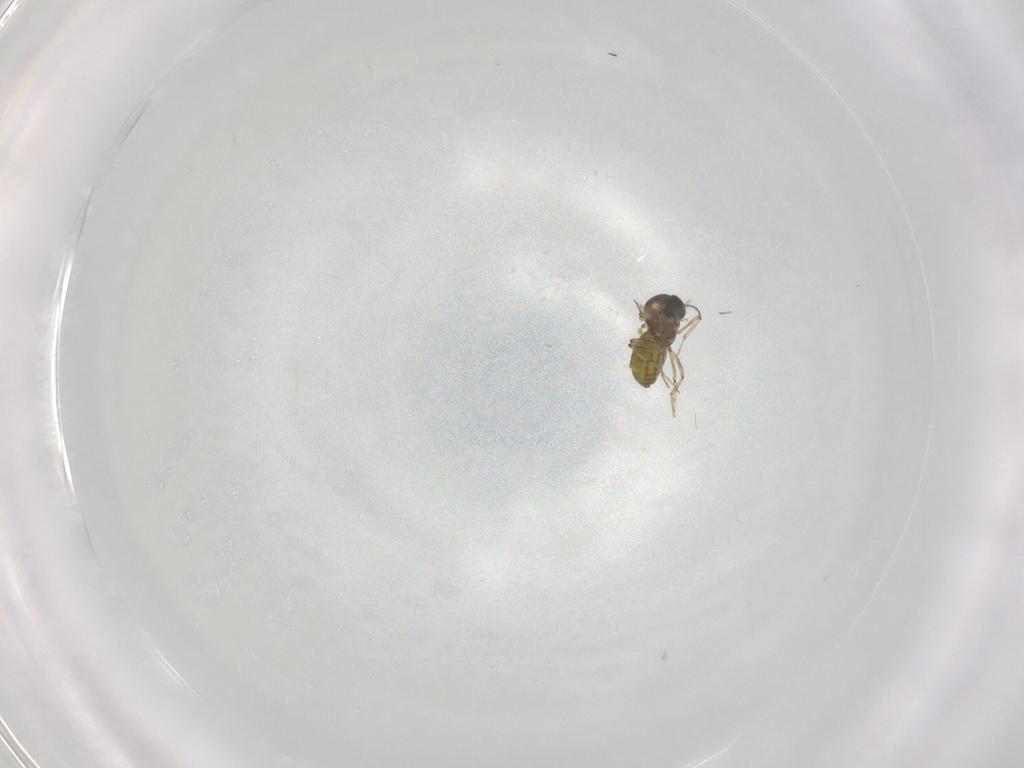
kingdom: Animalia
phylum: Arthropoda
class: Insecta
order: Diptera
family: Ceratopogonidae
